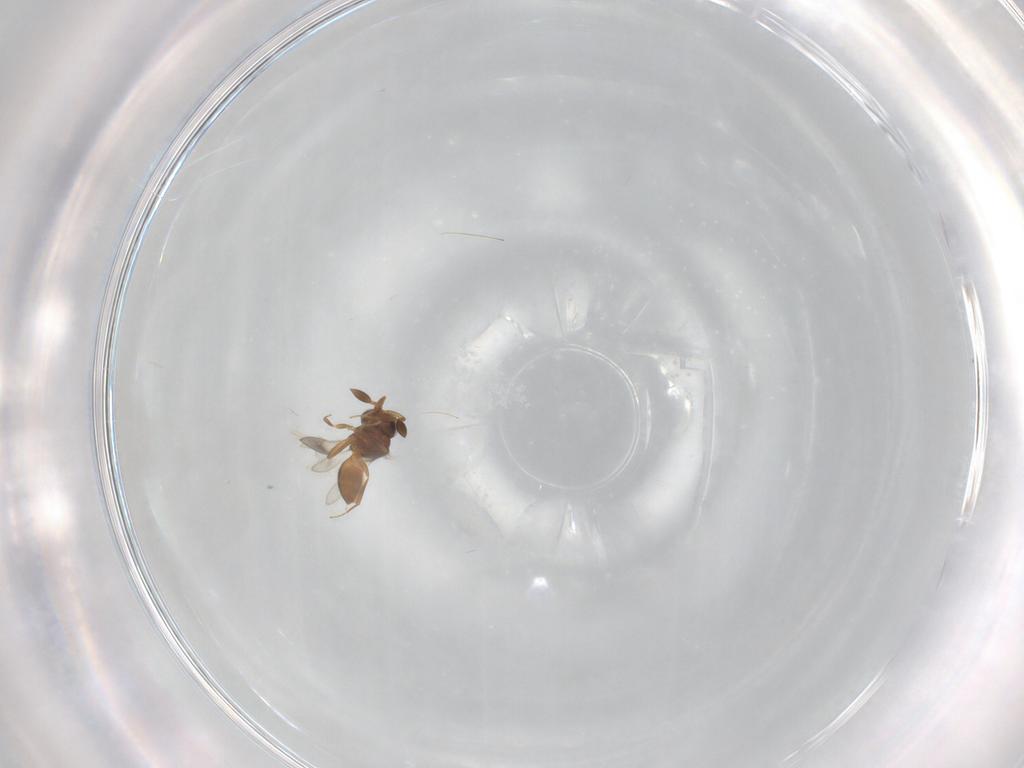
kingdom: Animalia
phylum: Arthropoda
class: Insecta
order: Hymenoptera
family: Scelionidae
